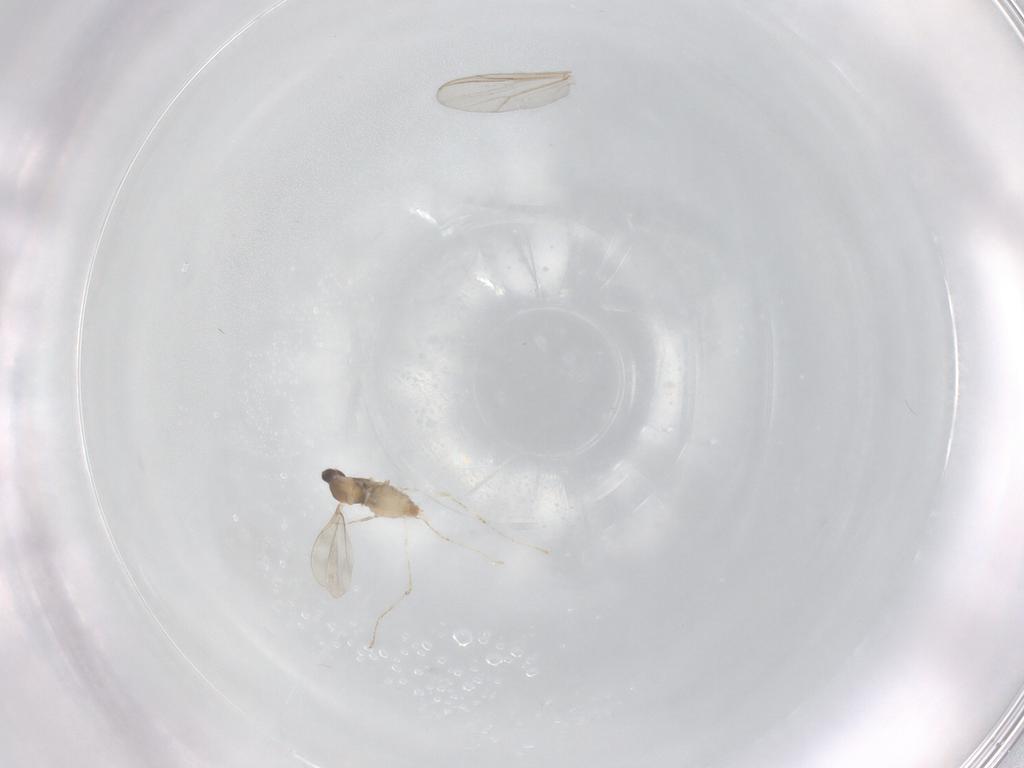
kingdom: Animalia
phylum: Arthropoda
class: Insecta
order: Diptera
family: Cecidomyiidae
